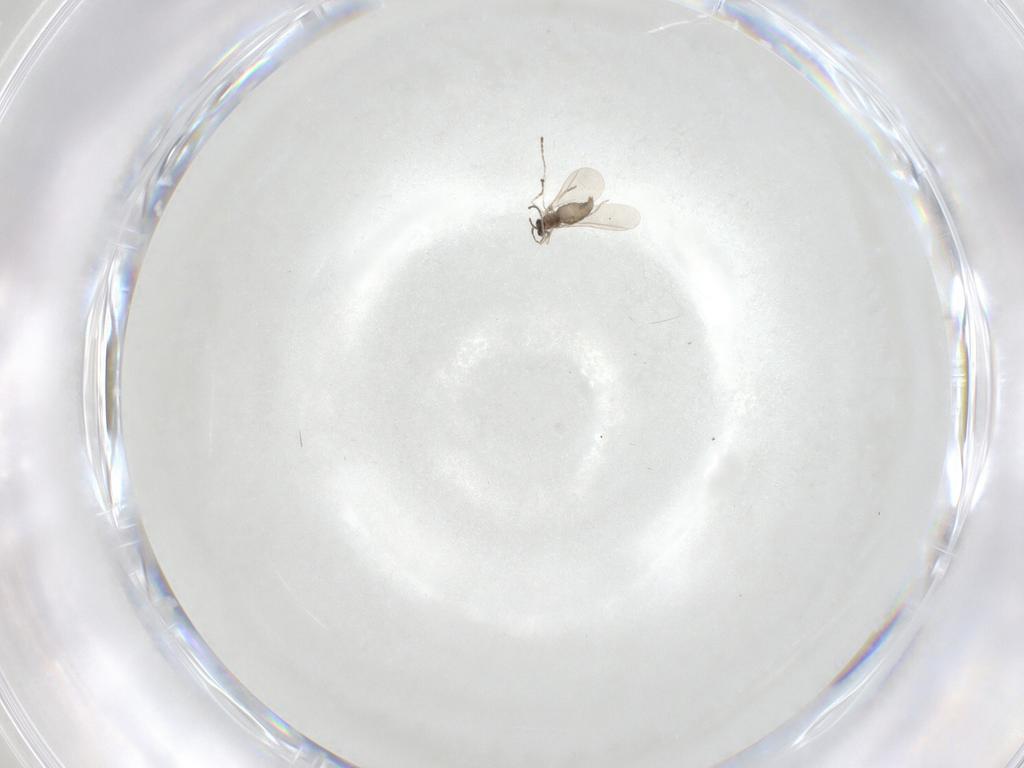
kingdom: Animalia
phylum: Arthropoda
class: Insecta
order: Diptera
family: Cecidomyiidae
